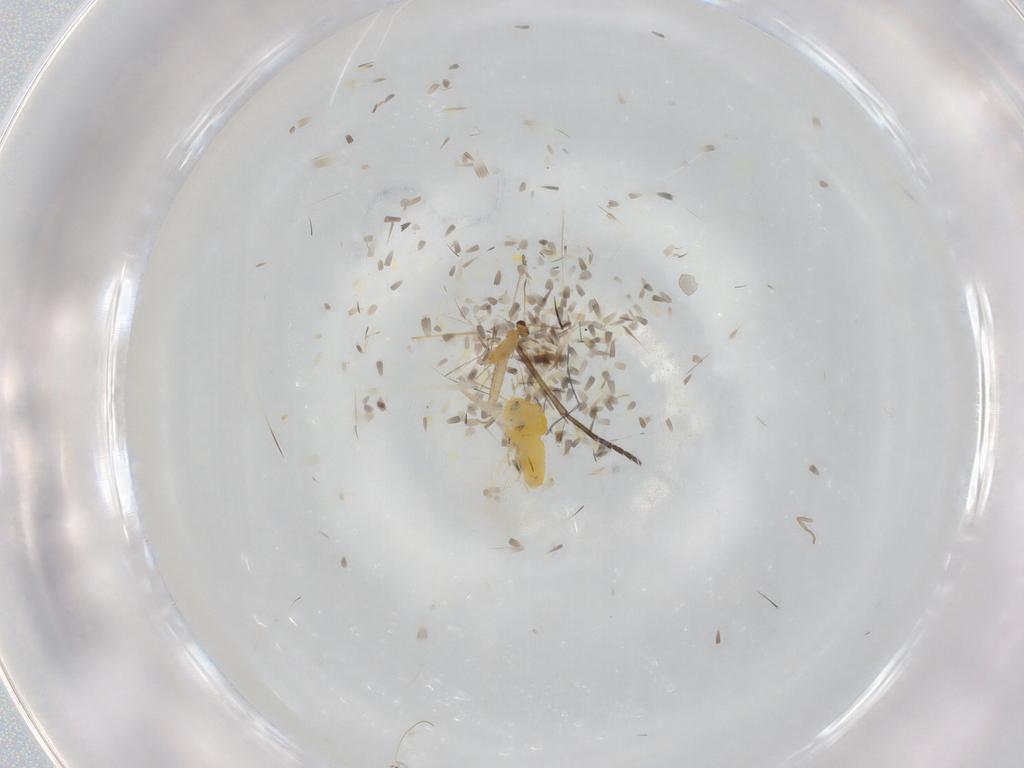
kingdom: Animalia
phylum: Arthropoda
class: Insecta
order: Diptera
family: Sciaridae
